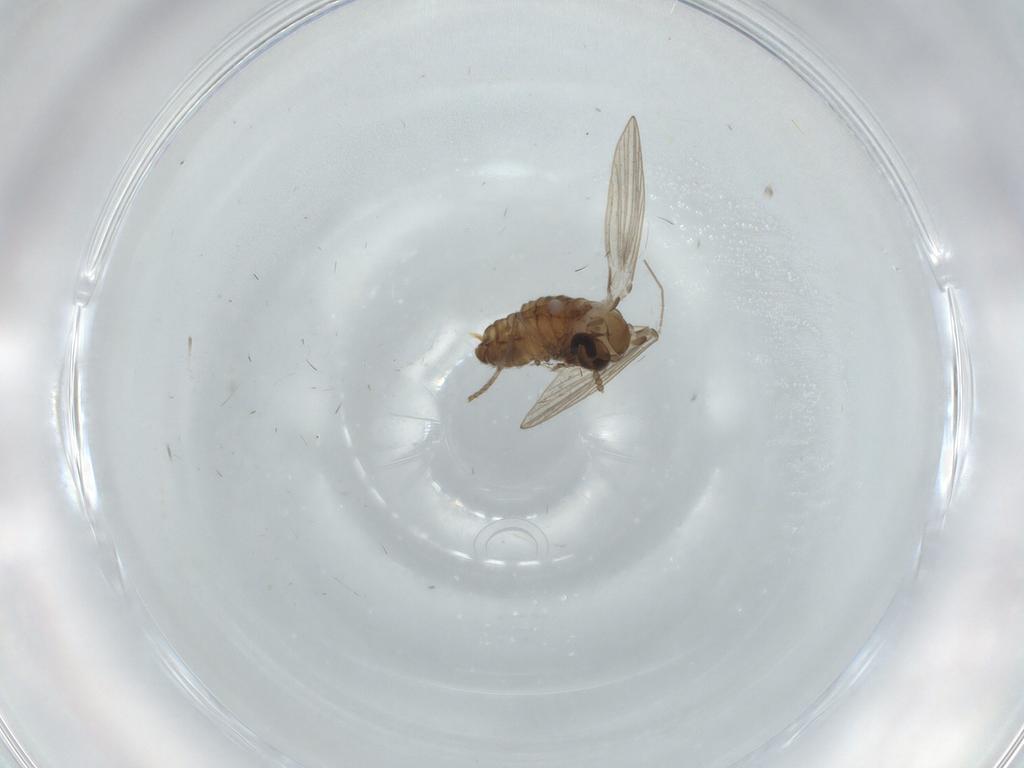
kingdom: Animalia
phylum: Arthropoda
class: Insecta
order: Diptera
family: Psychodidae
